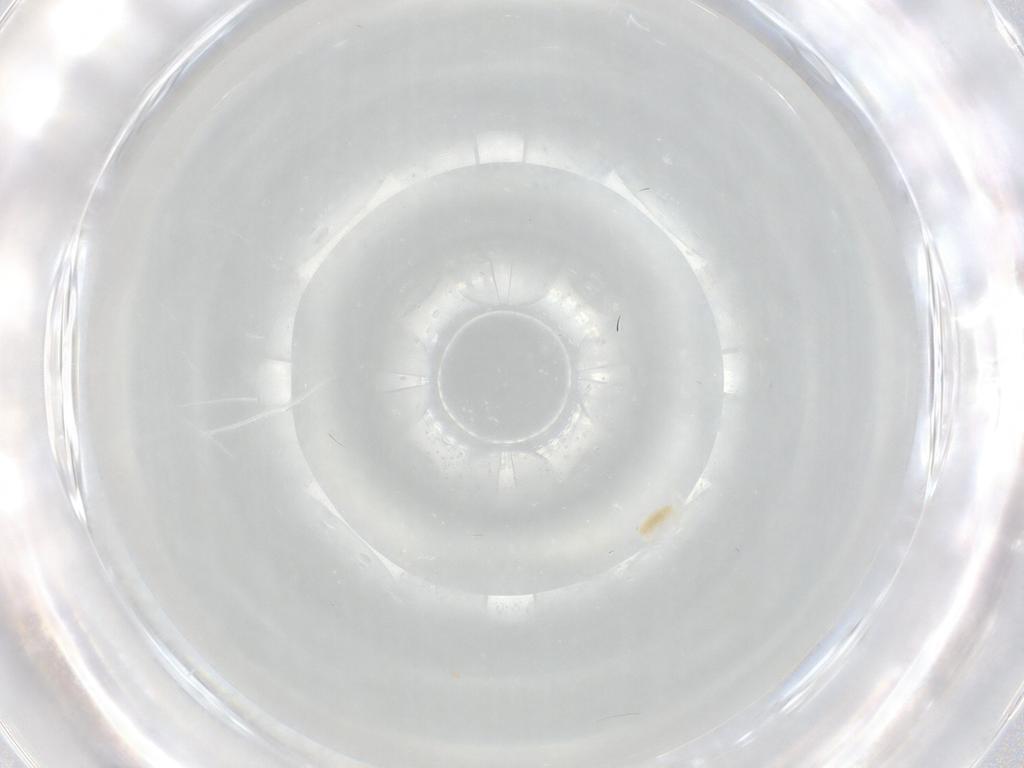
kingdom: Animalia
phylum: Arthropoda
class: Arachnida
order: Trombidiformes
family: Eupodidae
